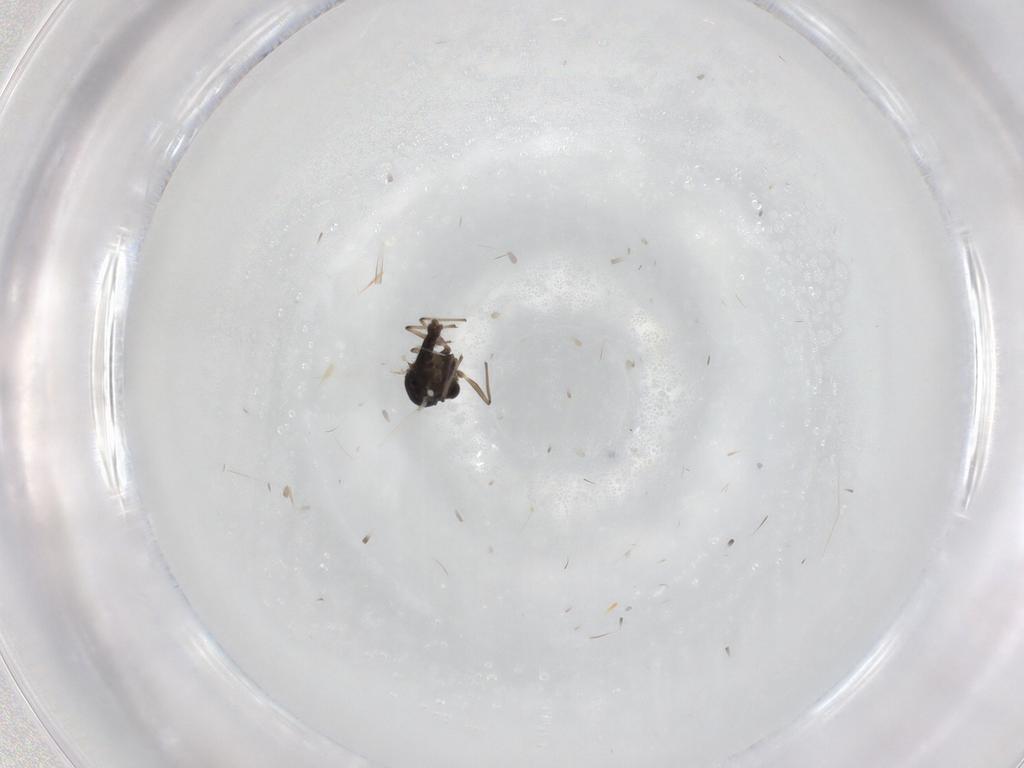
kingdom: Animalia
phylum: Arthropoda
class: Insecta
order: Diptera
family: Chironomidae
